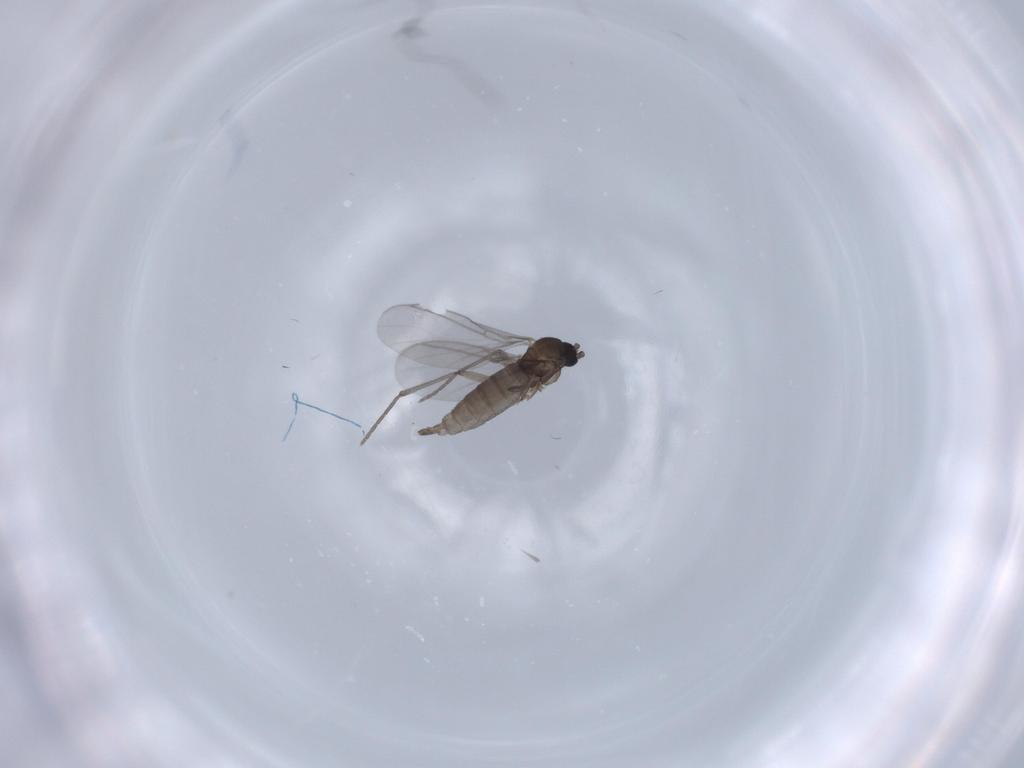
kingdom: Animalia
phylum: Arthropoda
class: Insecta
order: Diptera
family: Sciaridae
